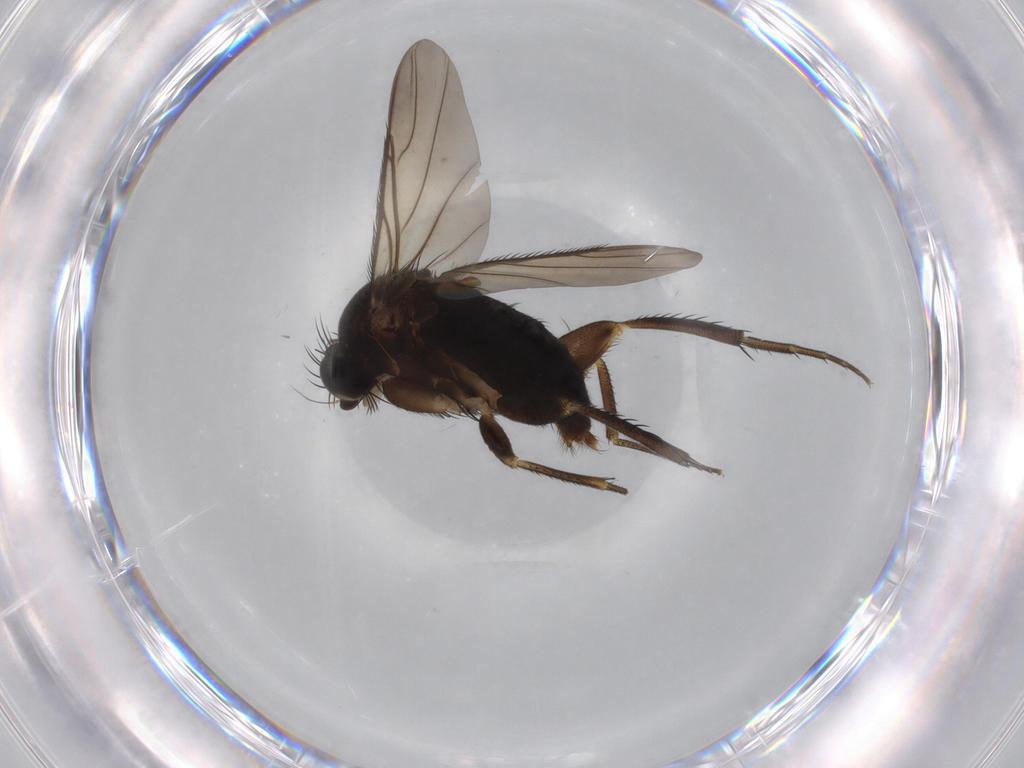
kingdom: Animalia
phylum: Arthropoda
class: Insecta
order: Diptera
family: Phoridae
